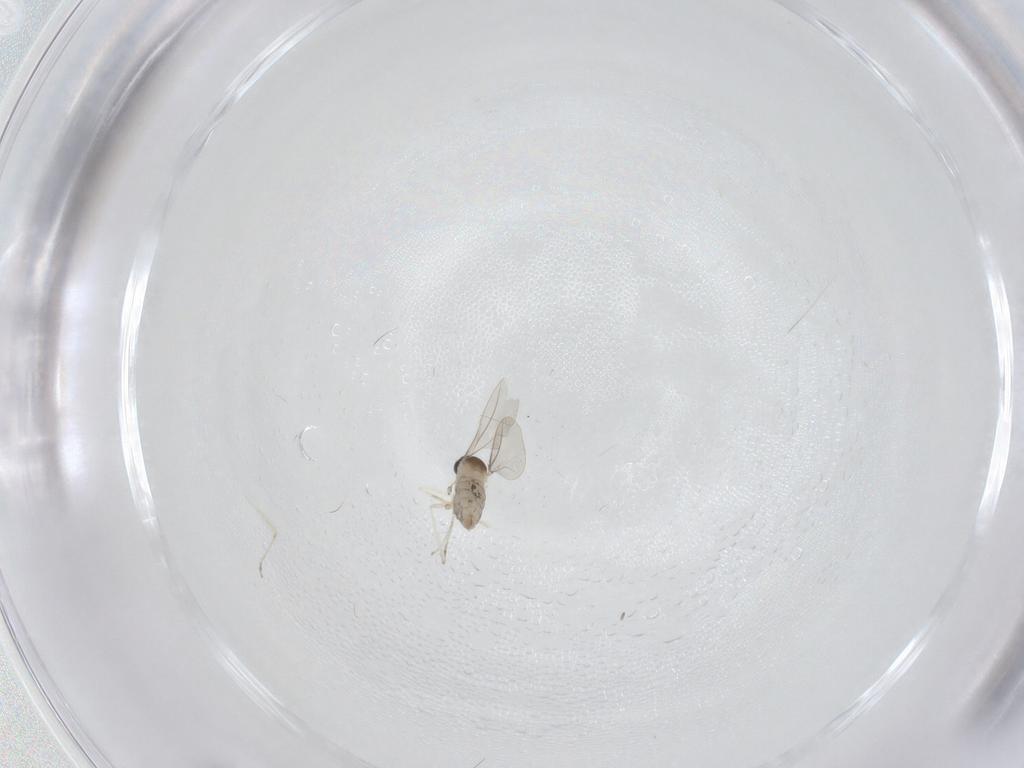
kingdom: Animalia
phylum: Arthropoda
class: Insecta
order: Diptera
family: Cecidomyiidae
